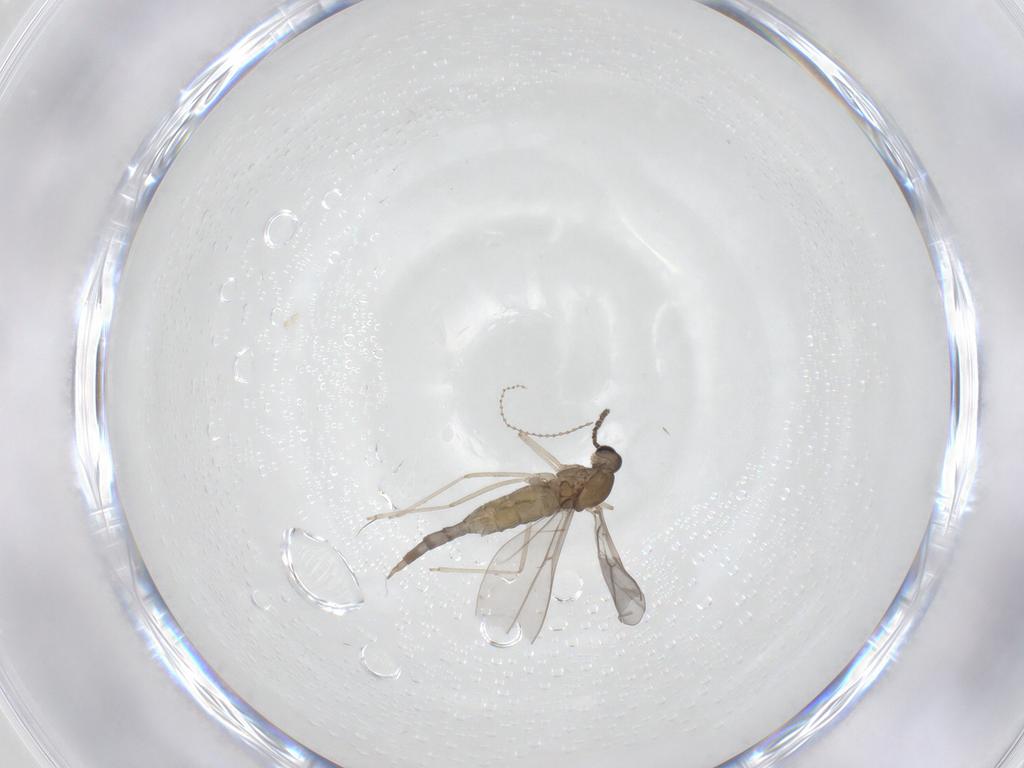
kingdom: Animalia
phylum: Arthropoda
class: Insecta
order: Diptera
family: Cecidomyiidae
